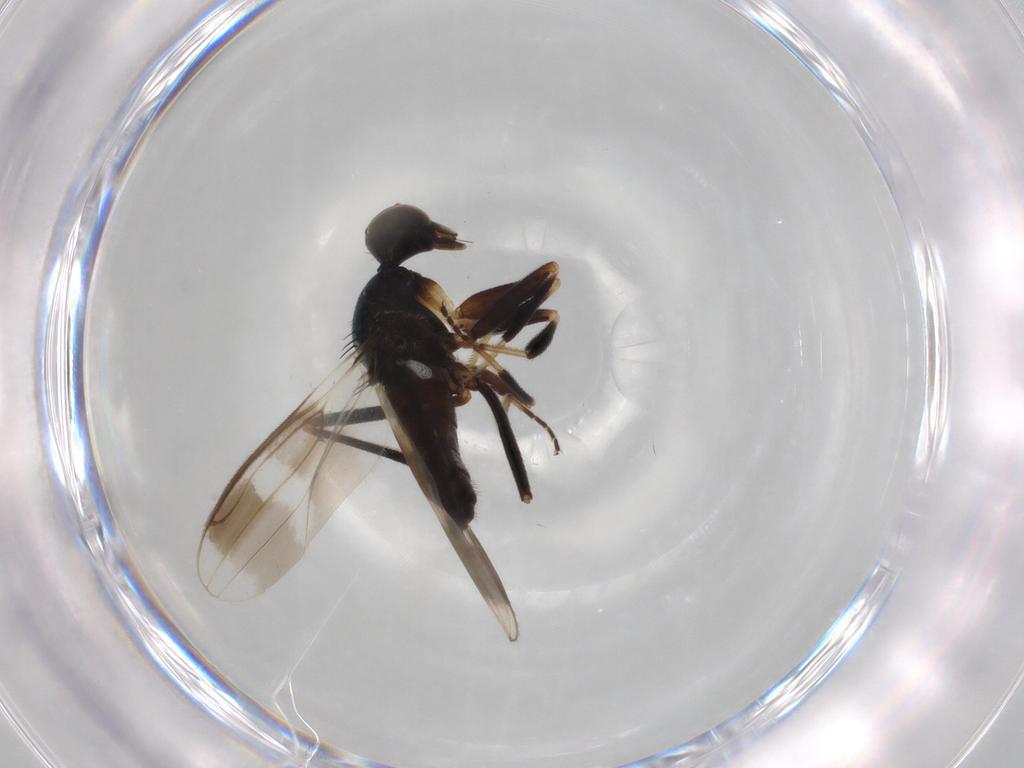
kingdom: Animalia
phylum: Arthropoda
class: Insecta
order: Diptera
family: Hybotidae
